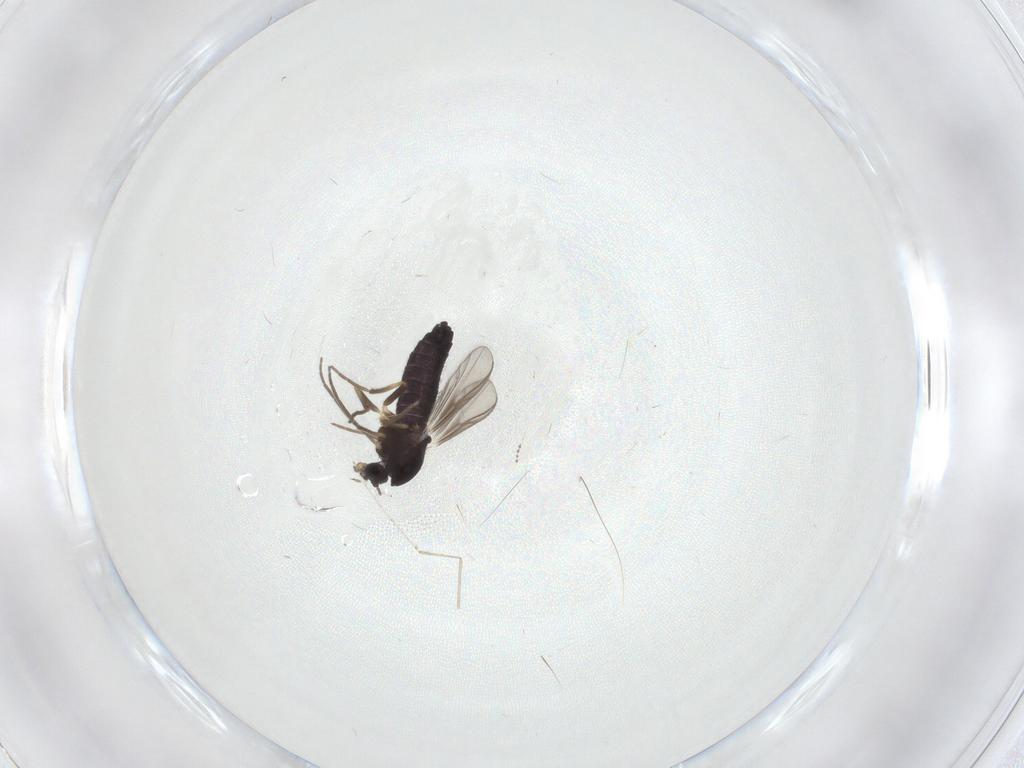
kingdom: Animalia
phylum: Arthropoda
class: Insecta
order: Diptera
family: Chironomidae
